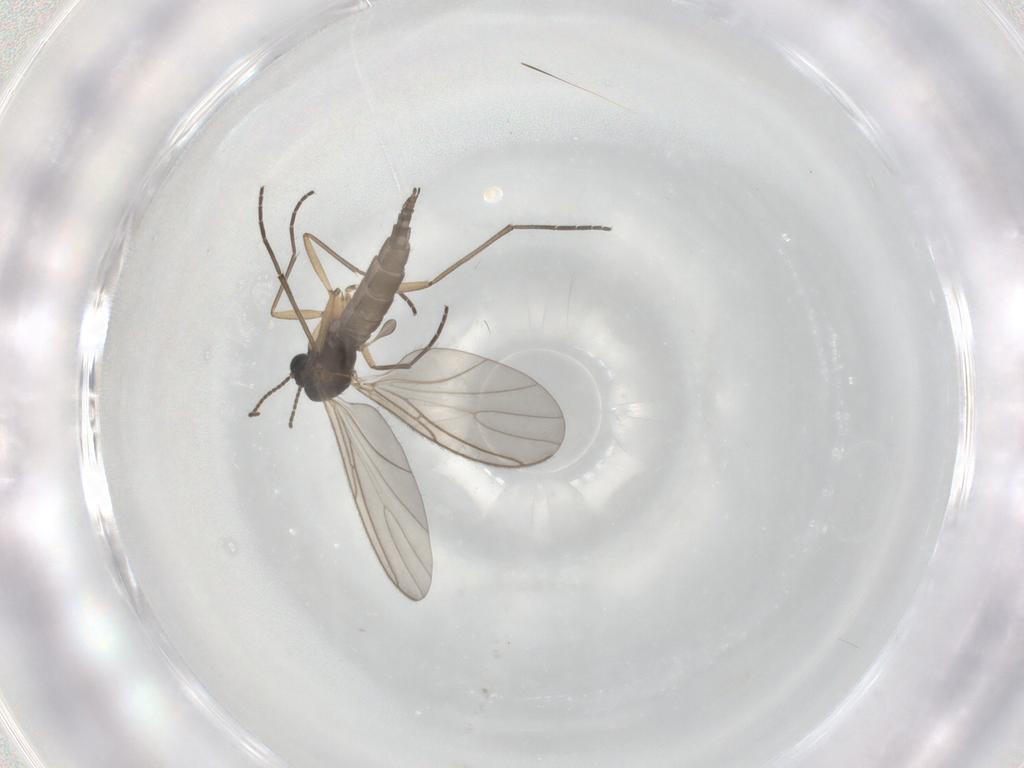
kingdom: Animalia
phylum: Arthropoda
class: Insecta
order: Diptera
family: Sciaridae
